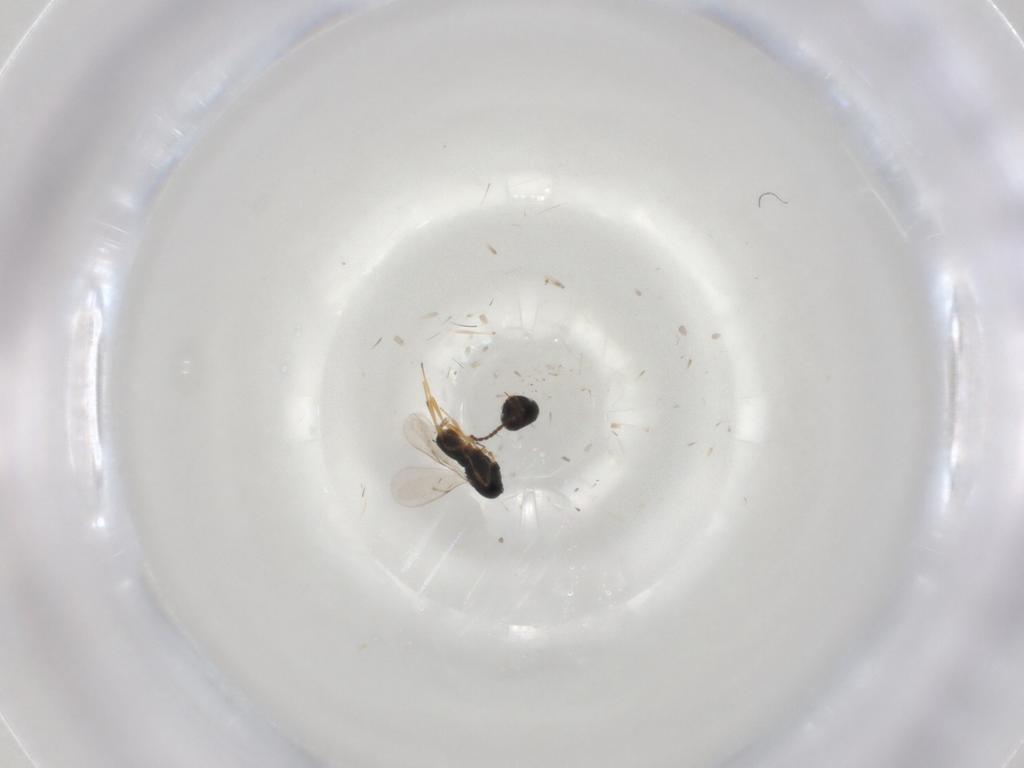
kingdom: Animalia
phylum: Arthropoda
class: Insecta
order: Hymenoptera
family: Scelionidae
